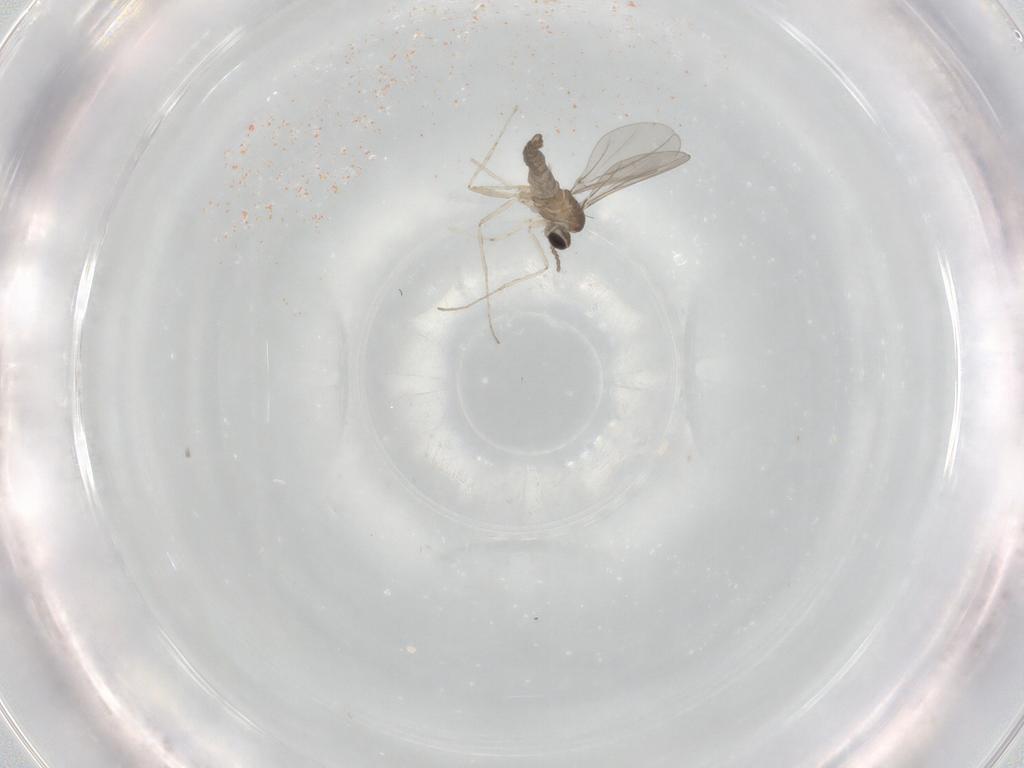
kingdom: Animalia
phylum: Arthropoda
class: Insecta
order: Diptera
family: Cecidomyiidae
